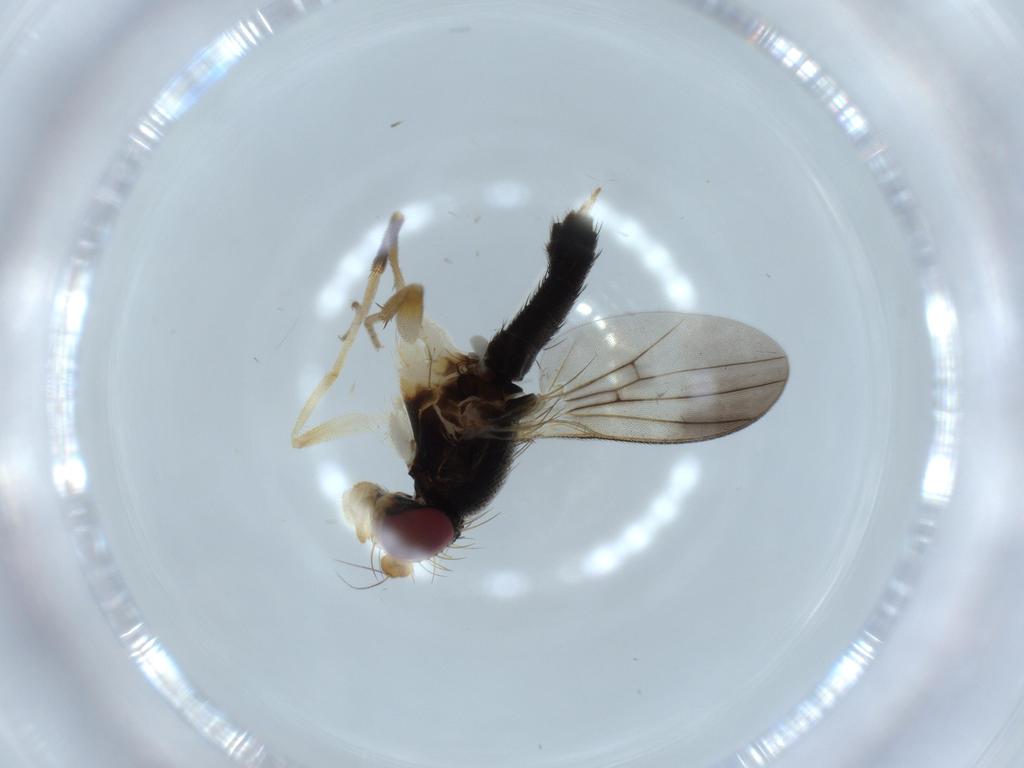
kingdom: Animalia
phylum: Arthropoda
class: Insecta
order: Diptera
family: Clusiidae
